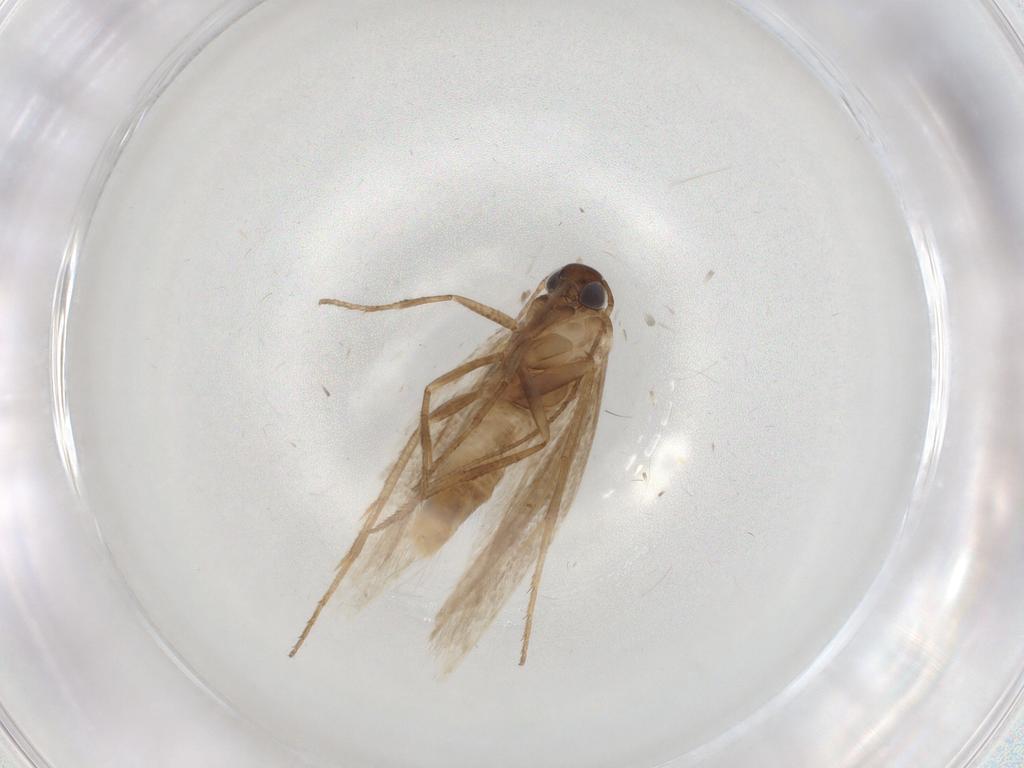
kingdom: Animalia
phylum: Arthropoda
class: Insecta
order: Lepidoptera
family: Gelechiidae
